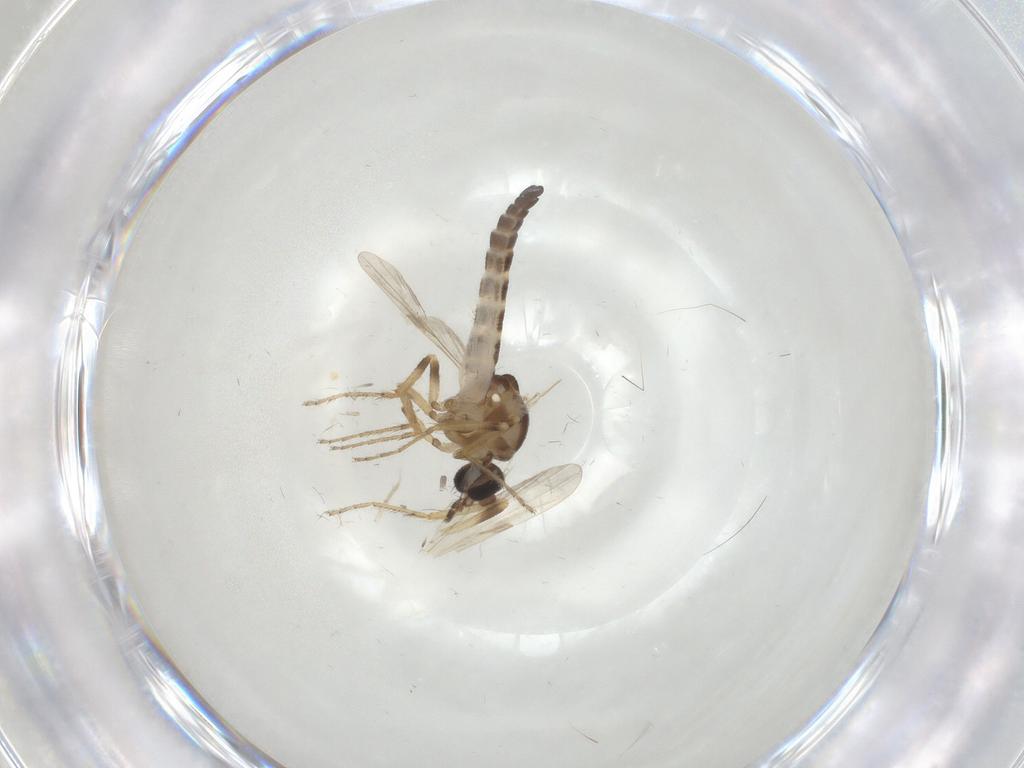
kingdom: Animalia
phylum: Arthropoda
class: Insecta
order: Diptera
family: Ceratopogonidae
